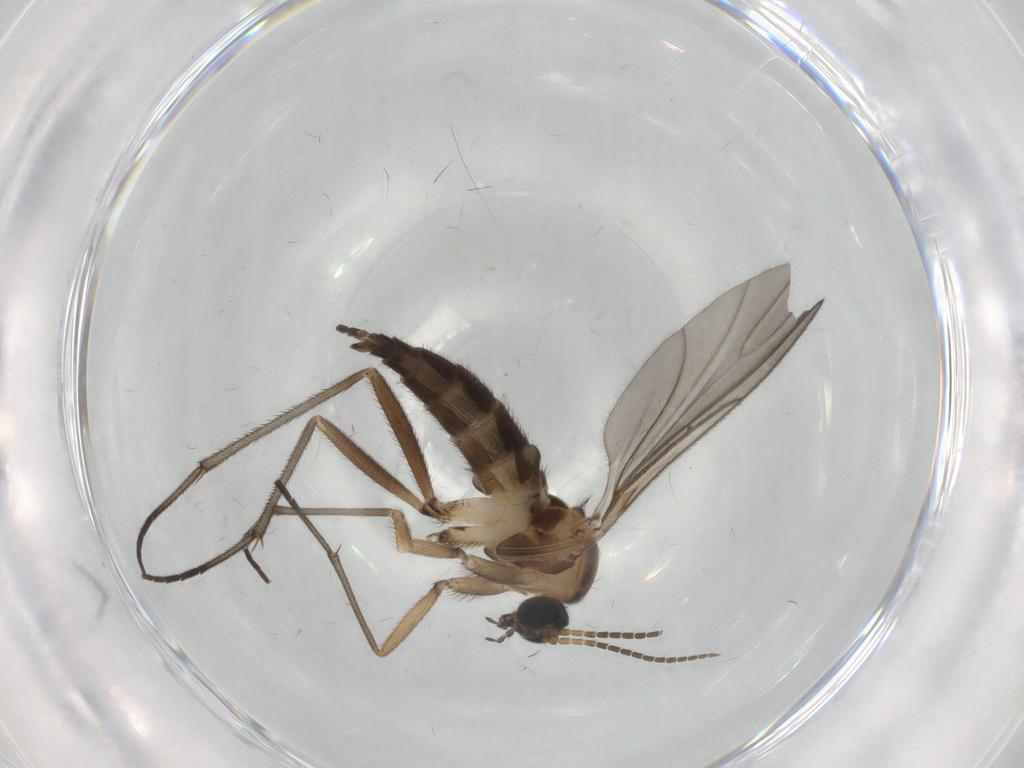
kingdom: Animalia
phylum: Arthropoda
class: Insecta
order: Diptera
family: Sciaridae
